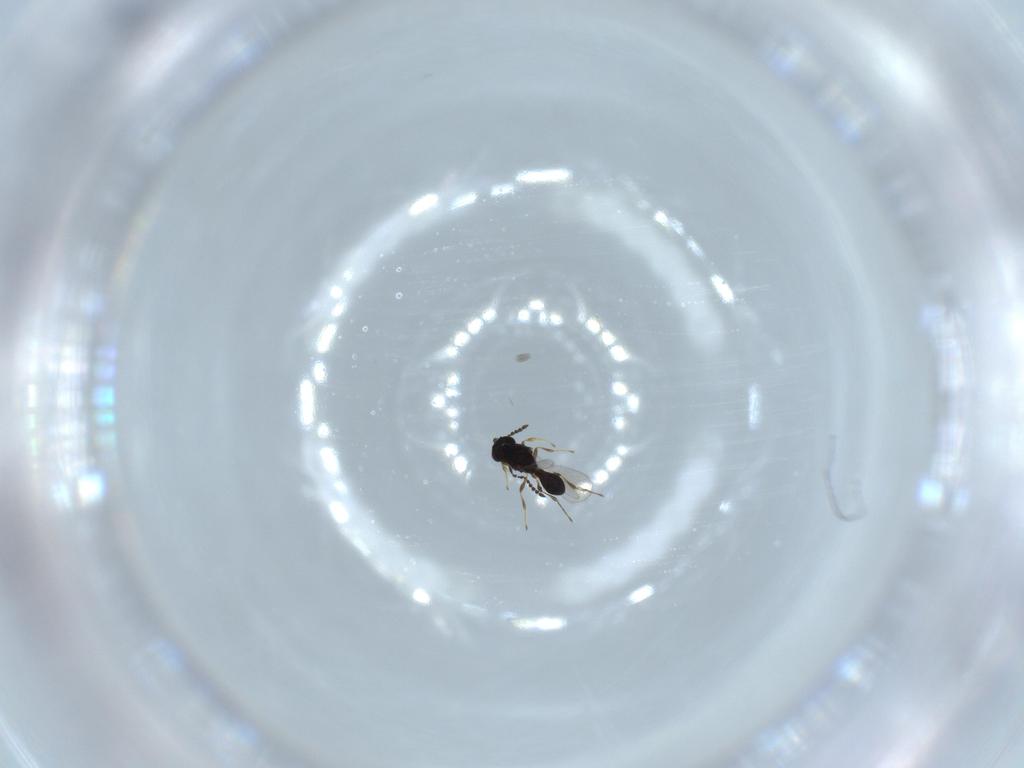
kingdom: Animalia
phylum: Arthropoda
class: Insecta
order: Hymenoptera
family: Platygastridae
